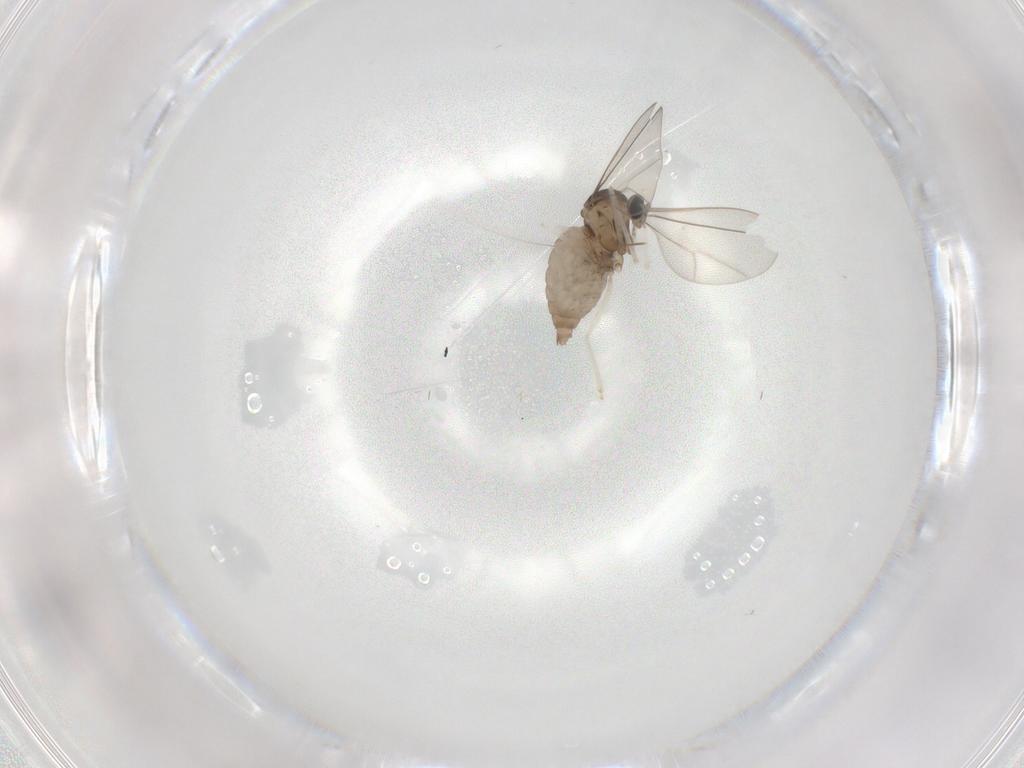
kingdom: Animalia
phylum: Arthropoda
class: Insecta
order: Diptera
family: Cecidomyiidae
